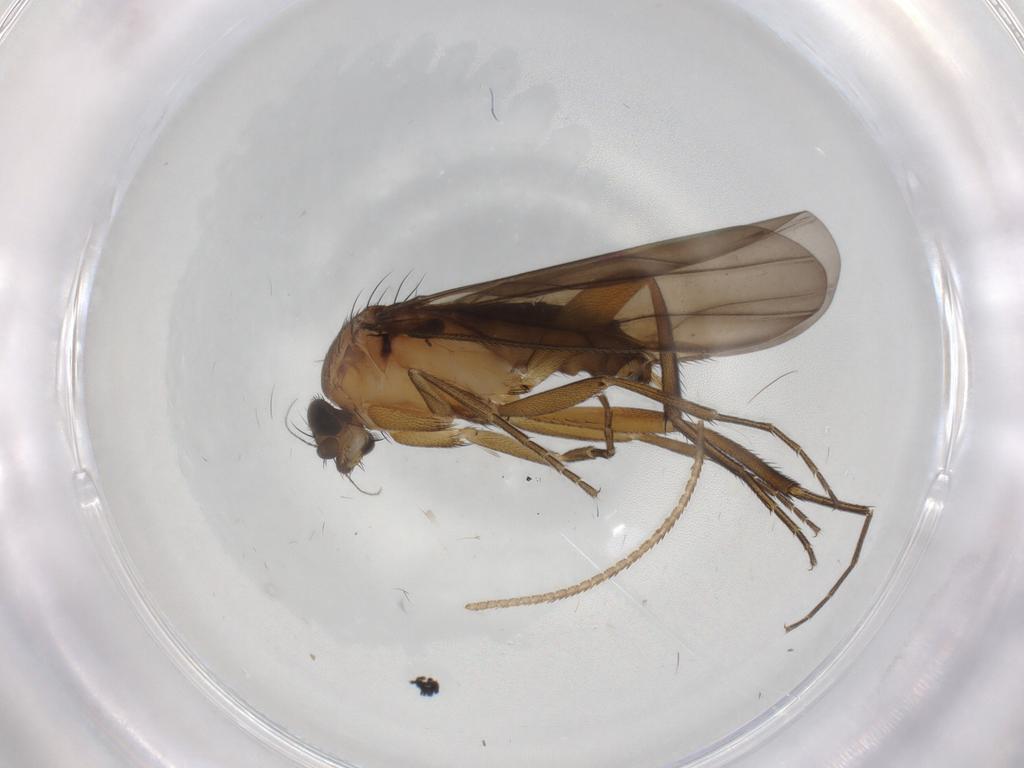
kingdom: Animalia
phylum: Arthropoda
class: Insecta
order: Diptera
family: Phoridae
